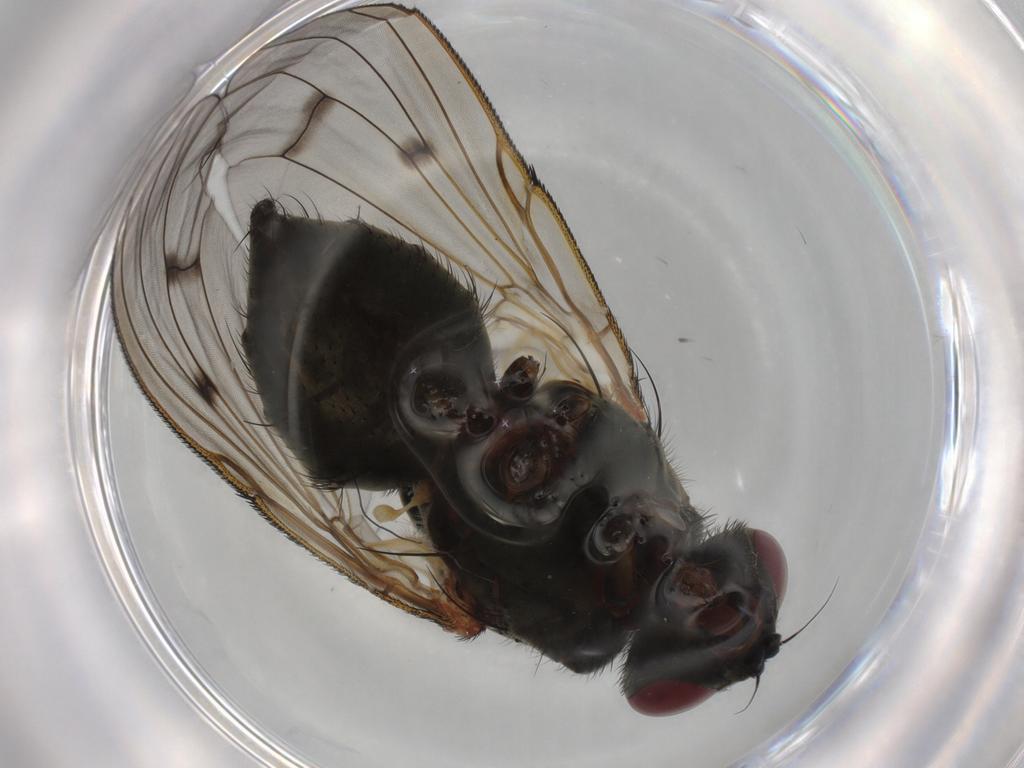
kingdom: Animalia
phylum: Arthropoda
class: Insecta
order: Diptera
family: Muscidae
